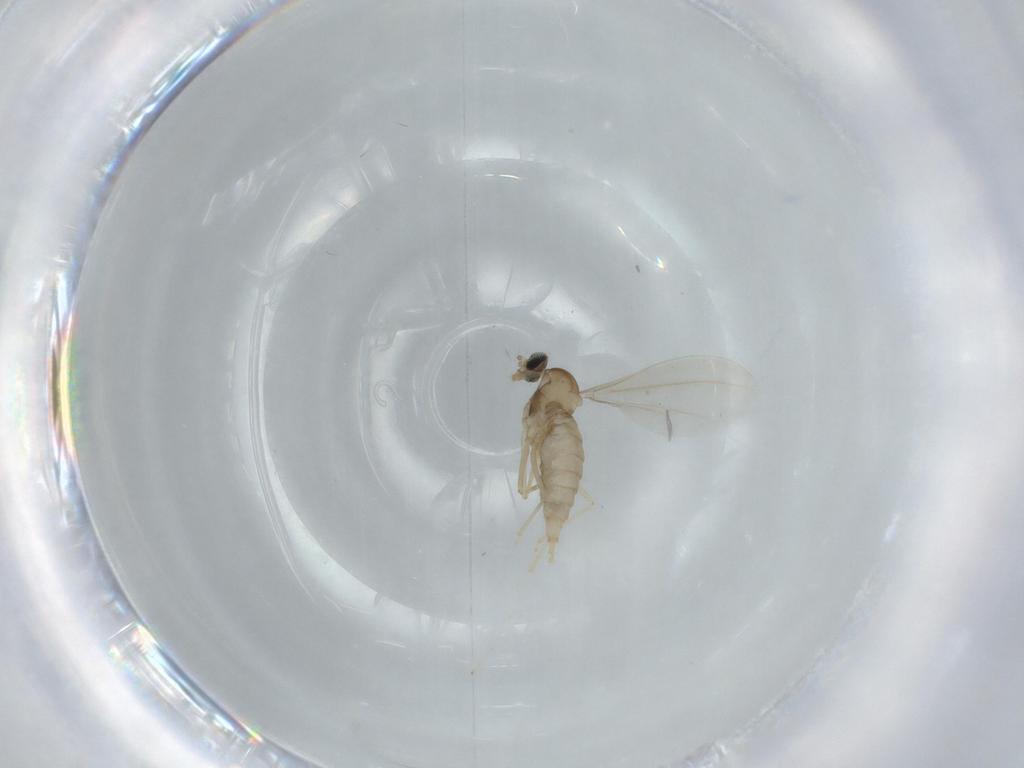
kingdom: Animalia
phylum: Arthropoda
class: Insecta
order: Diptera
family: Cecidomyiidae
